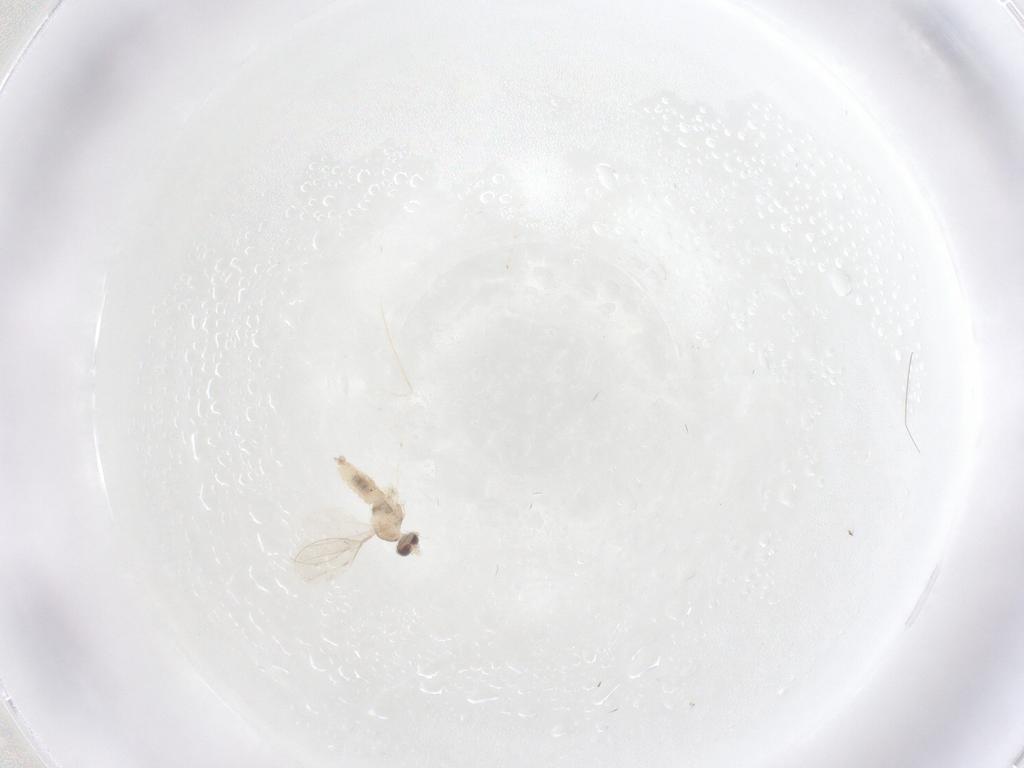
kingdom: Animalia
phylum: Arthropoda
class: Insecta
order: Diptera
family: Cecidomyiidae
